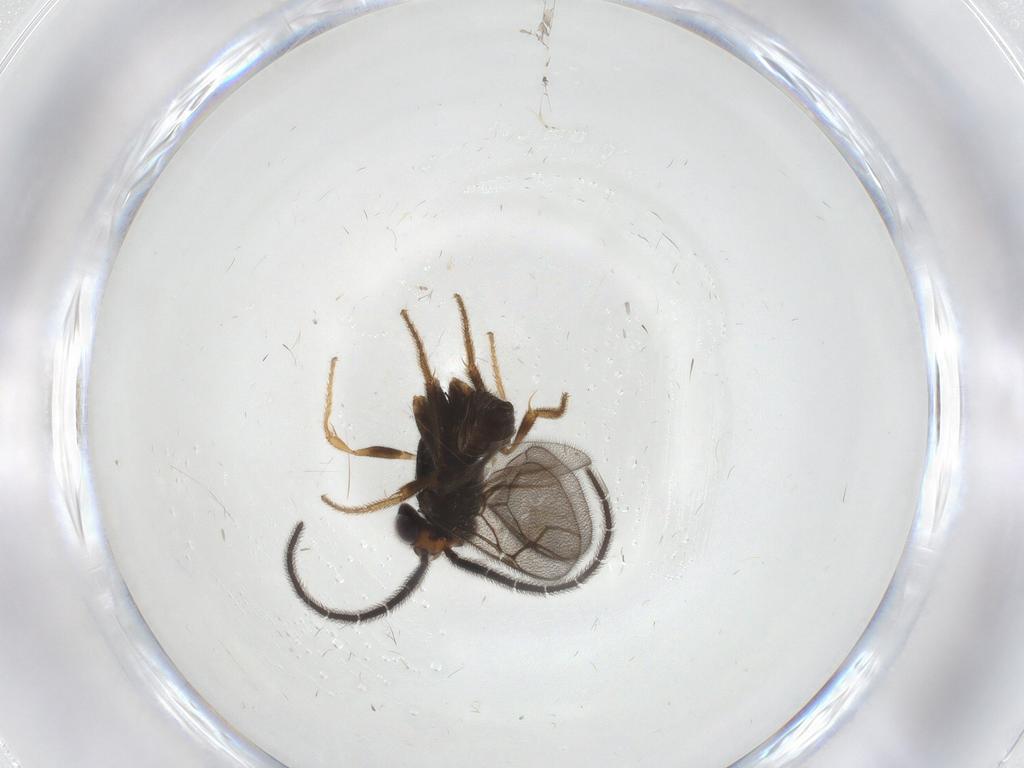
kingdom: Animalia
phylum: Arthropoda
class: Insecta
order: Hymenoptera
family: Dryinidae
